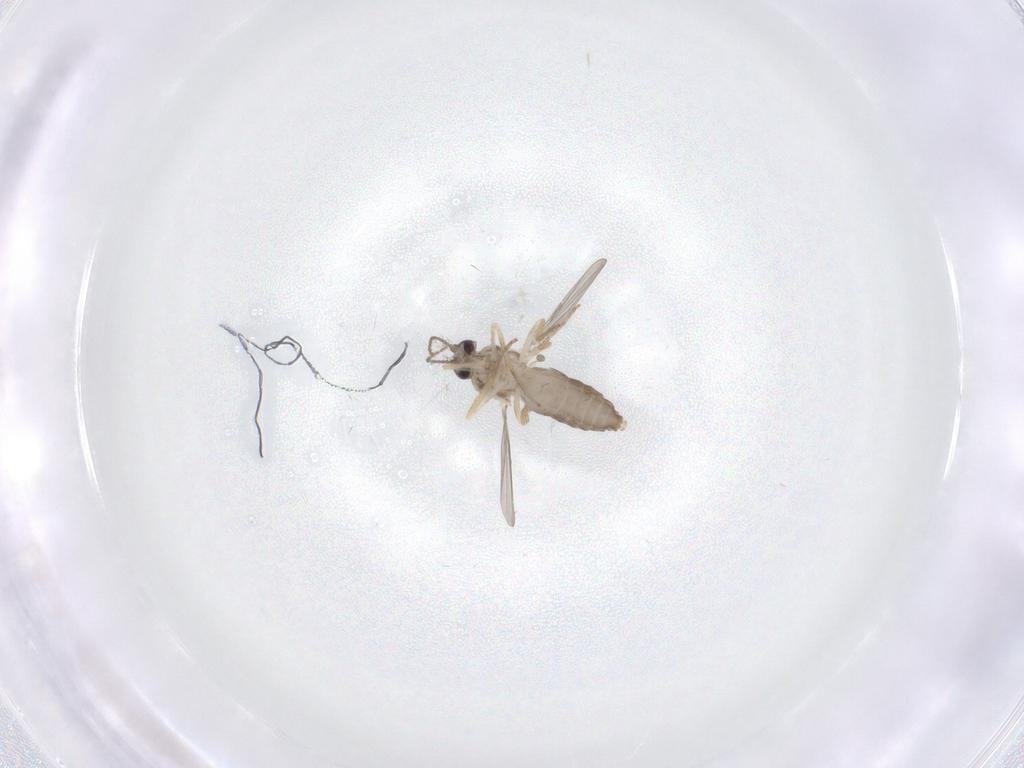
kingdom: Animalia
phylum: Arthropoda
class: Insecta
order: Diptera
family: Ceratopogonidae
